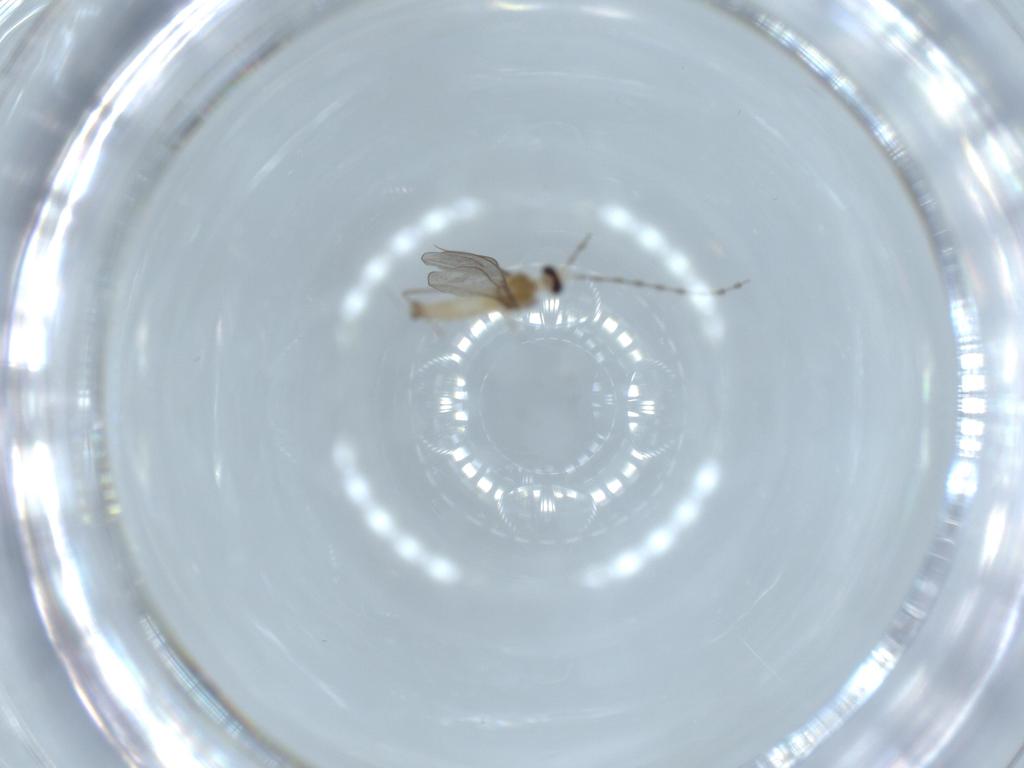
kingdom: Animalia
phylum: Arthropoda
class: Insecta
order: Diptera
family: Cecidomyiidae
